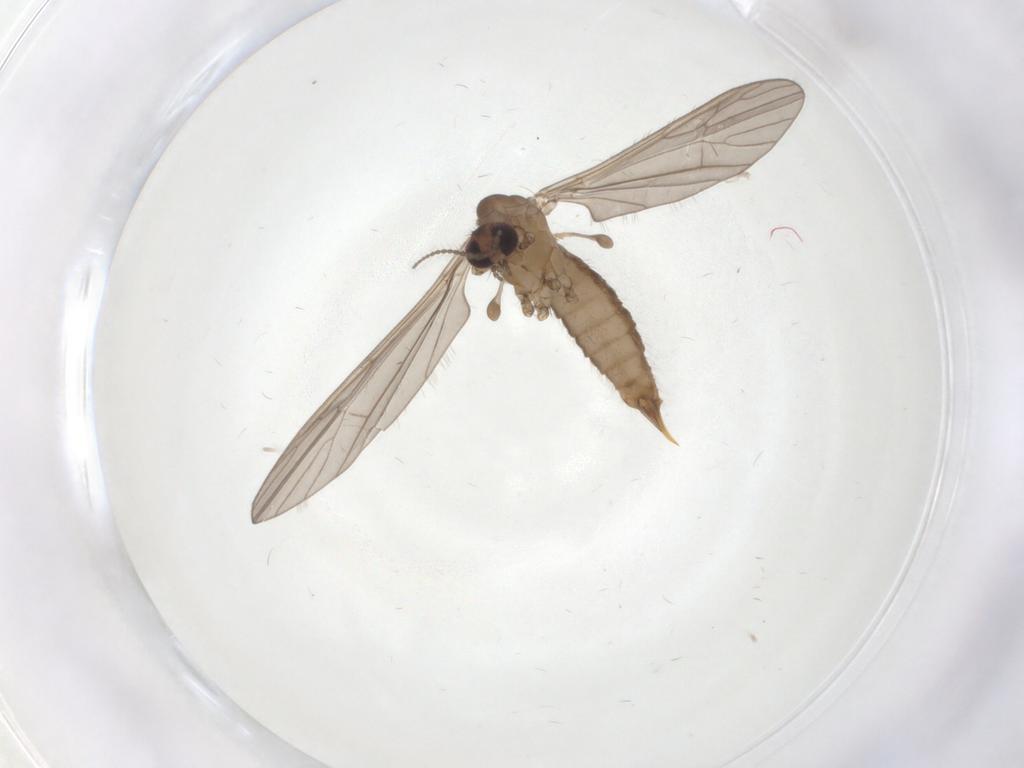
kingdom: Animalia
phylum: Arthropoda
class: Insecta
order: Diptera
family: Limoniidae
